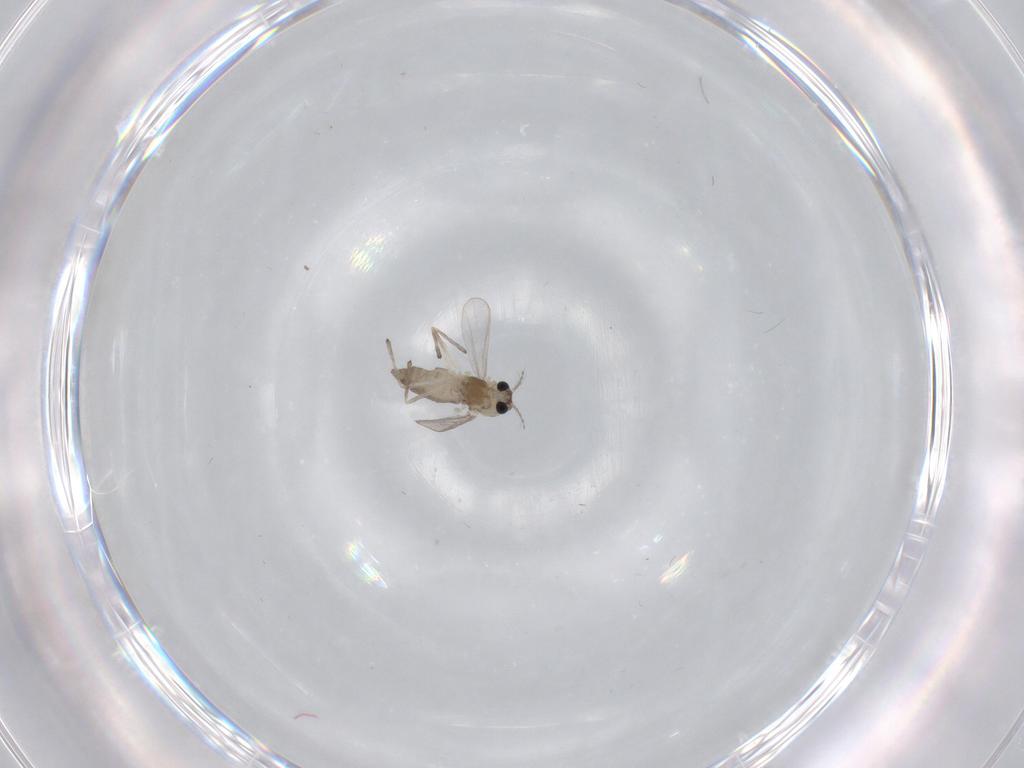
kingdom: Animalia
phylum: Arthropoda
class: Insecta
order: Diptera
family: Chironomidae
